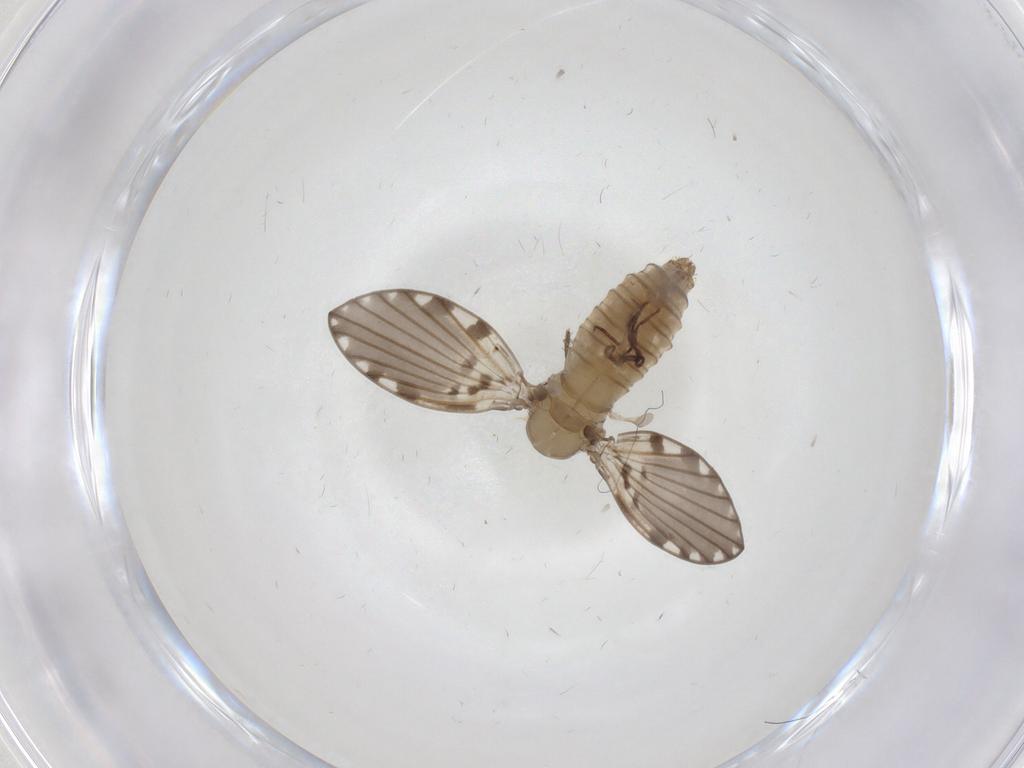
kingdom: Animalia
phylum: Arthropoda
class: Insecta
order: Diptera
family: Psychodidae
